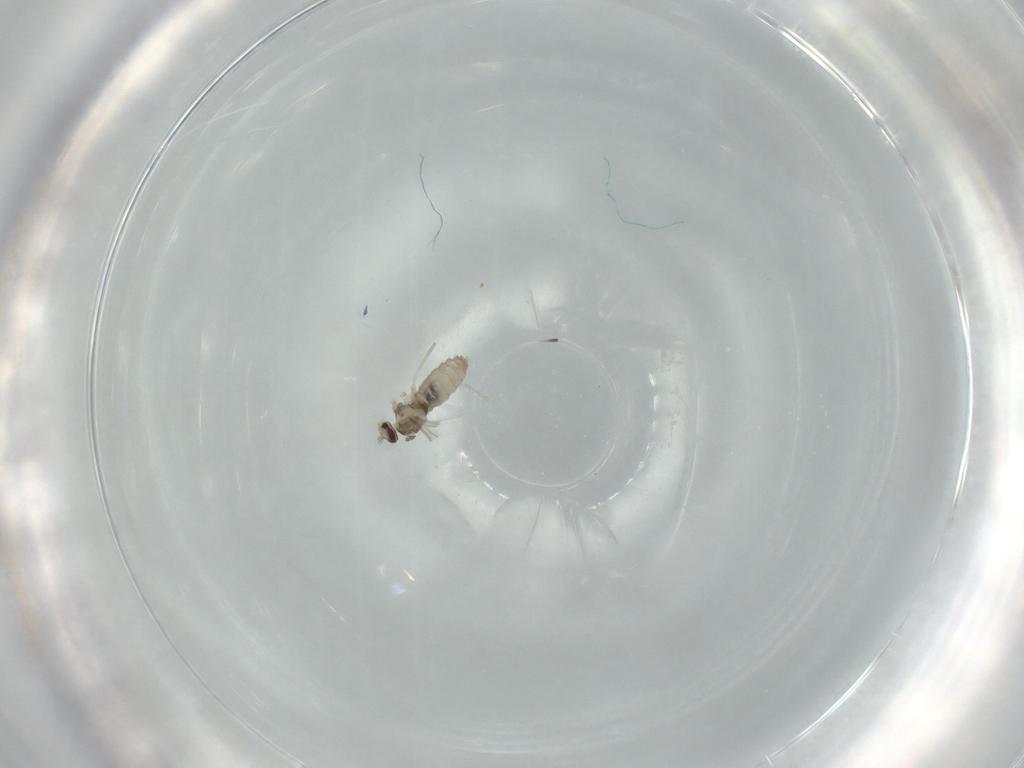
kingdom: Animalia
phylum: Arthropoda
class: Insecta
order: Diptera
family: Cecidomyiidae
